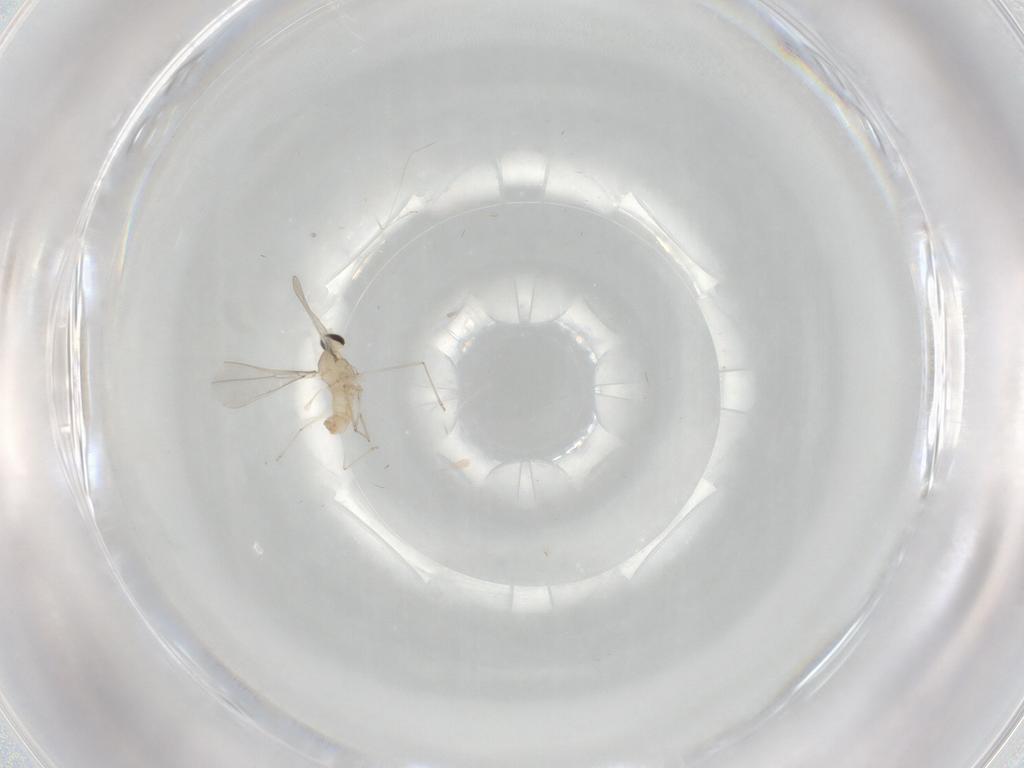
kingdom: Animalia
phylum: Arthropoda
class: Insecta
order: Diptera
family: Cecidomyiidae
